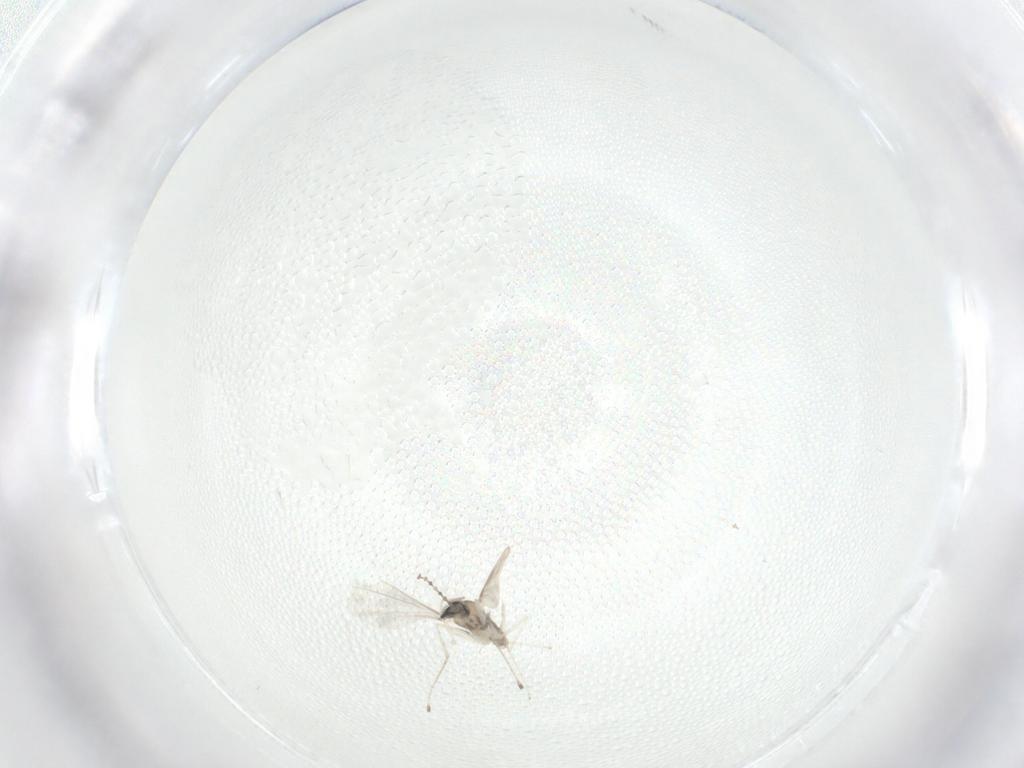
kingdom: Animalia
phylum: Arthropoda
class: Insecta
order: Diptera
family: Cecidomyiidae
